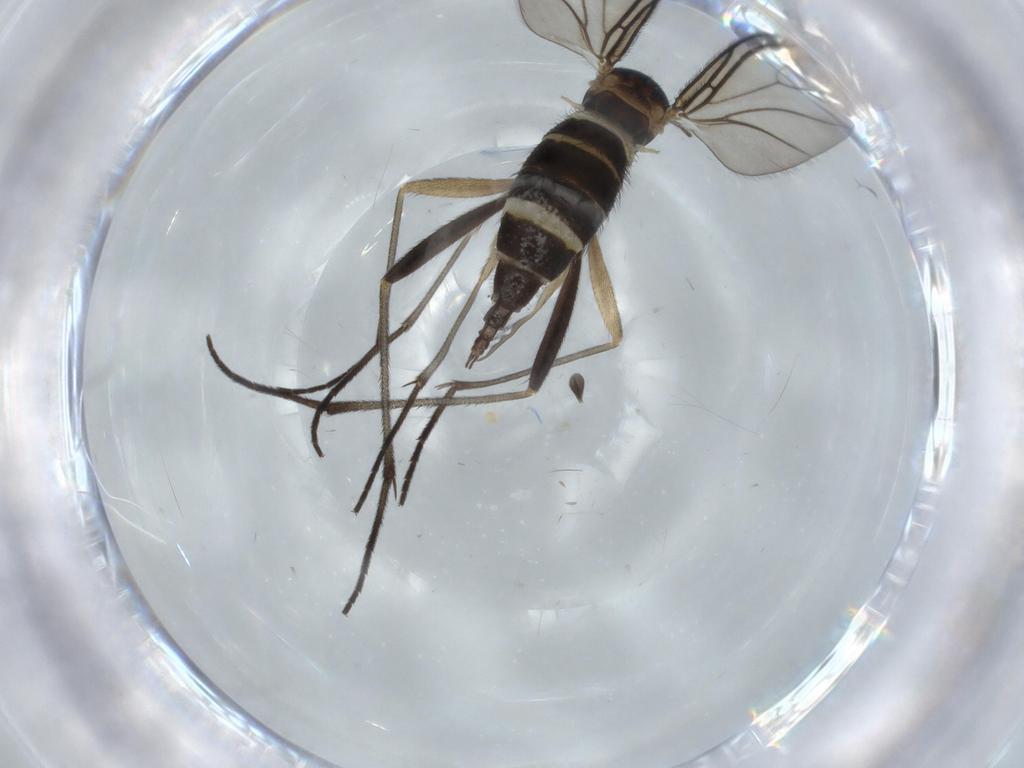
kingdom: Animalia
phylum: Arthropoda
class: Insecta
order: Diptera
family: Sciaridae
